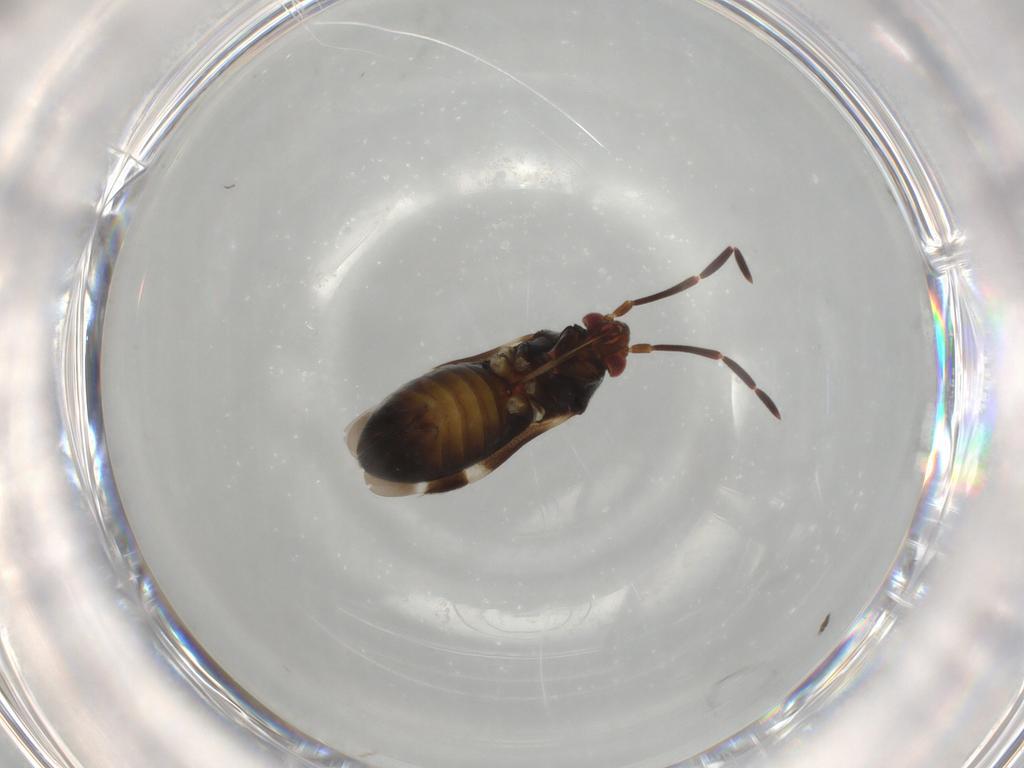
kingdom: Animalia
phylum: Arthropoda
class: Insecta
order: Hemiptera
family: Miridae
